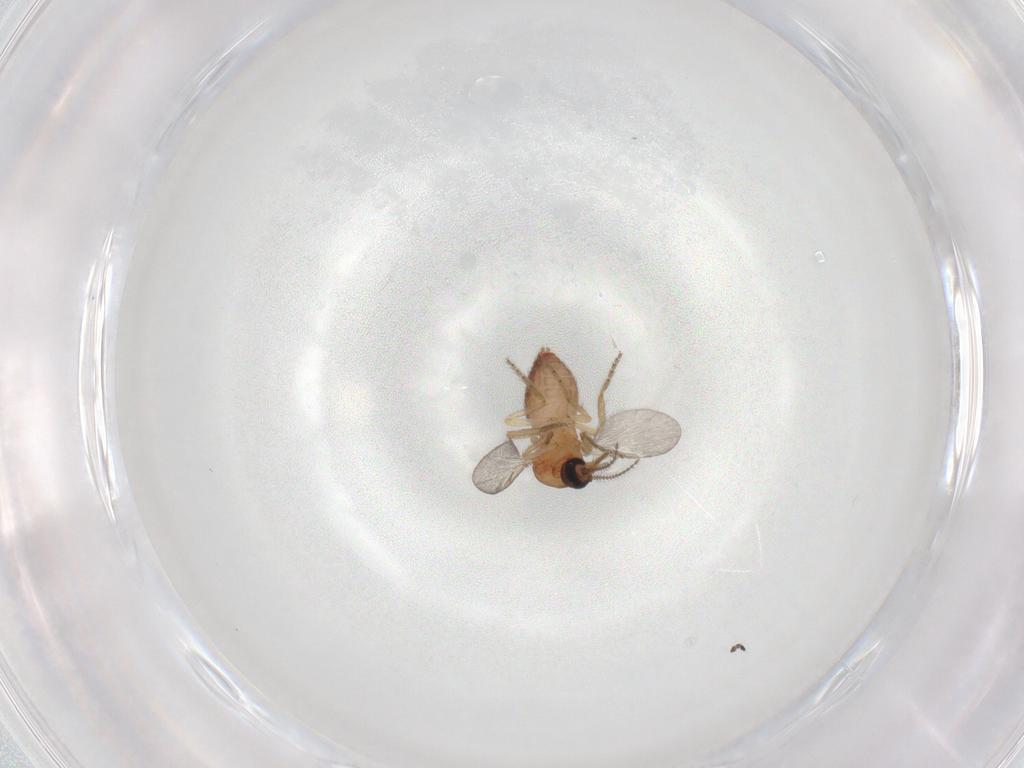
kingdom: Animalia
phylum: Arthropoda
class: Insecta
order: Diptera
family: Ceratopogonidae
